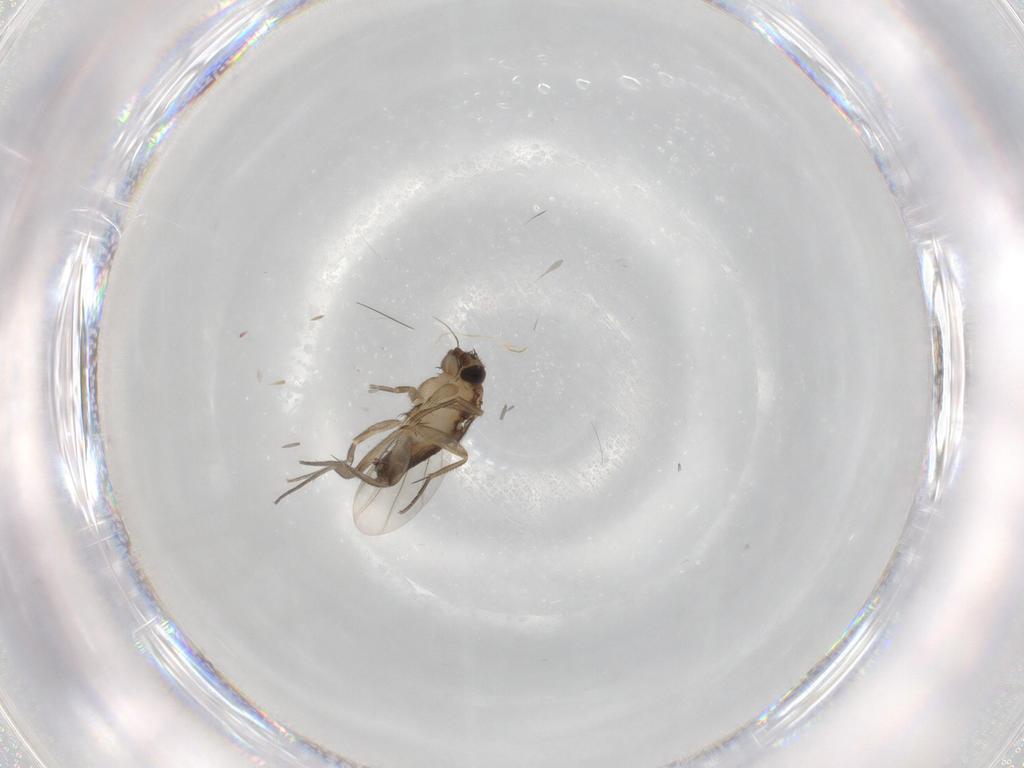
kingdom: Animalia
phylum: Arthropoda
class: Insecta
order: Diptera
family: Phoridae
